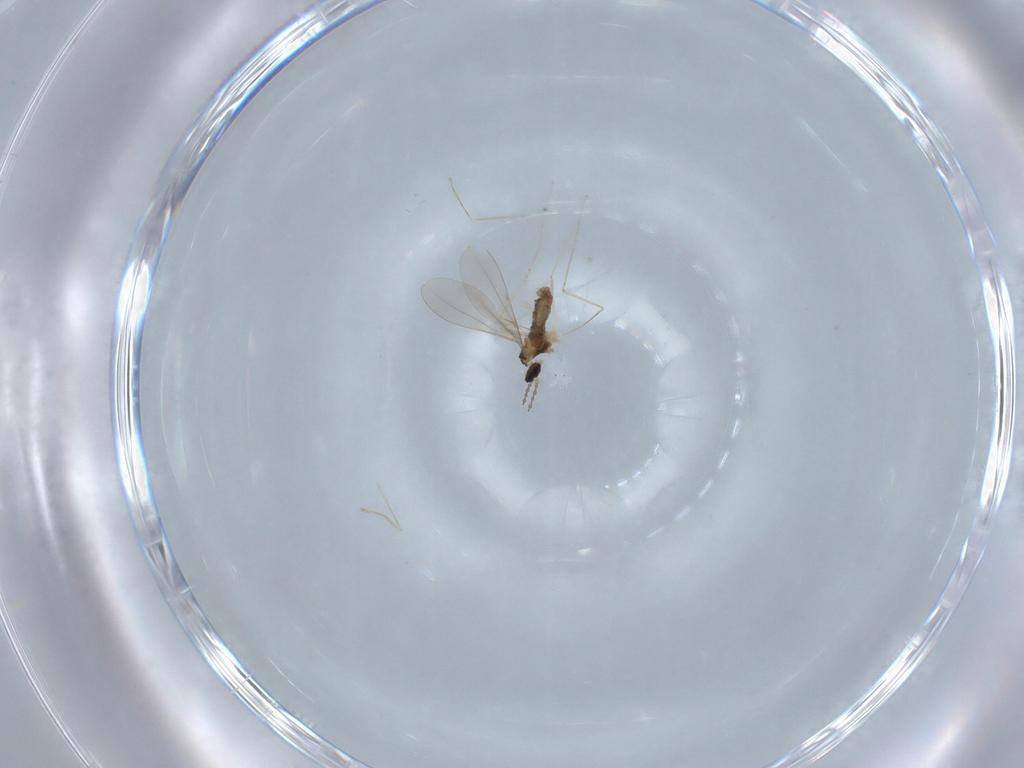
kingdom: Animalia
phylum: Arthropoda
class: Insecta
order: Diptera
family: Cecidomyiidae
